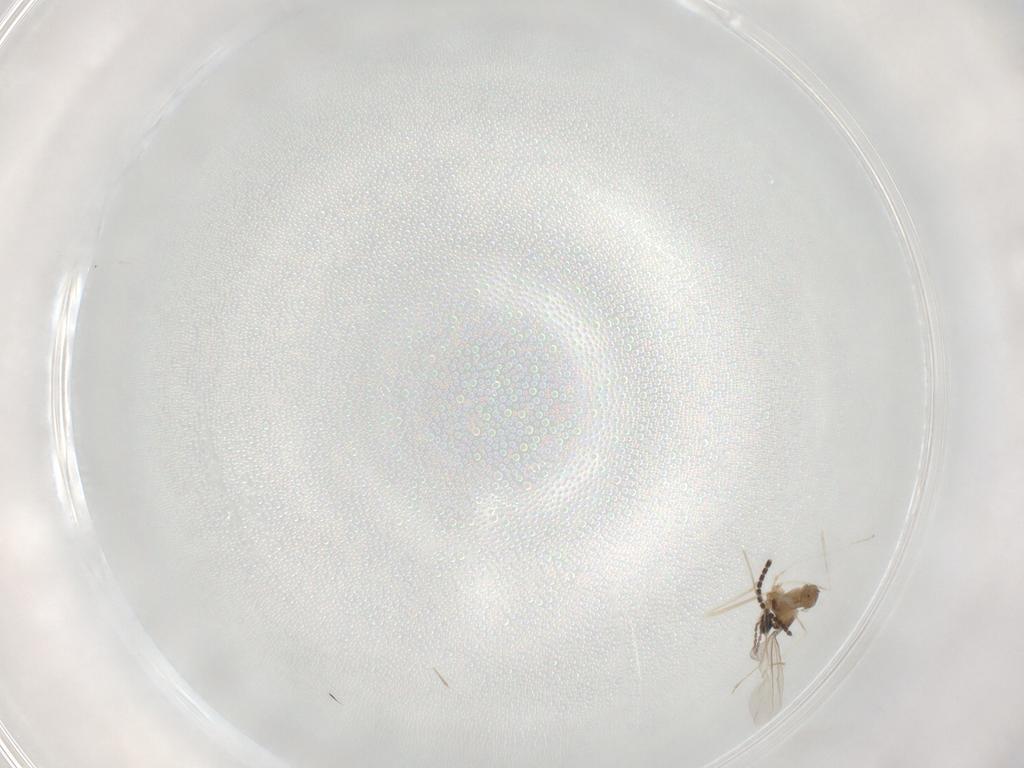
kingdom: Animalia
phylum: Arthropoda
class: Insecta
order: Diptera
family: Cecidomyiidae
